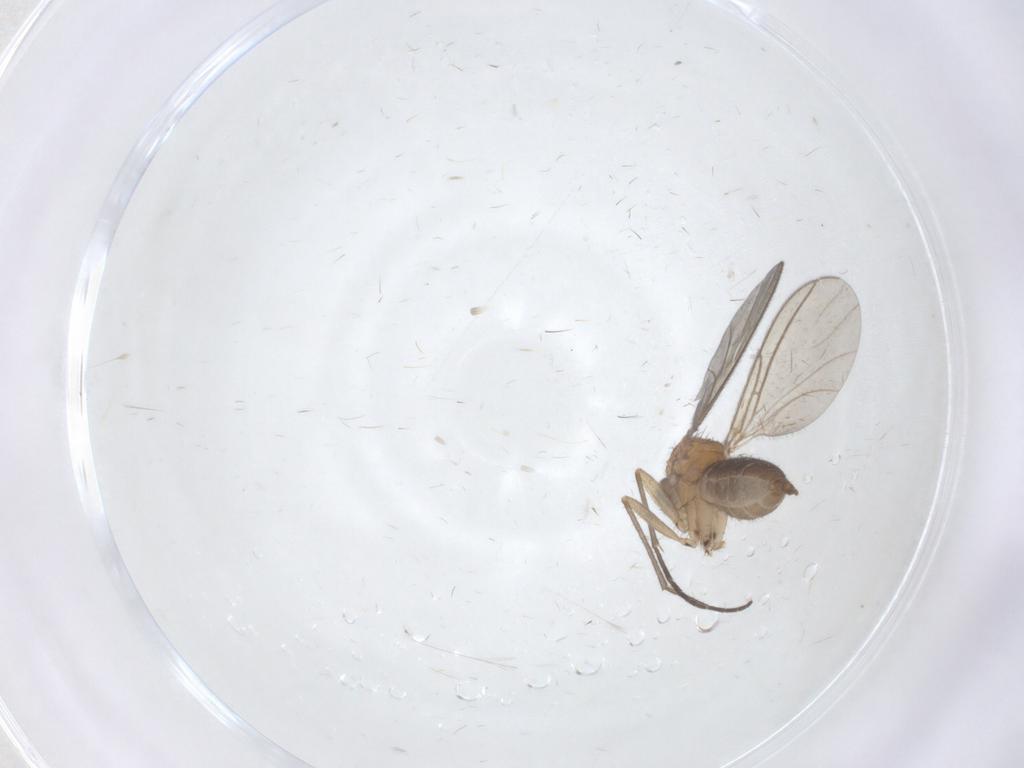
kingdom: Animalia
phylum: Arthropoda
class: Insecta
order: Diptera
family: Sciaridae
